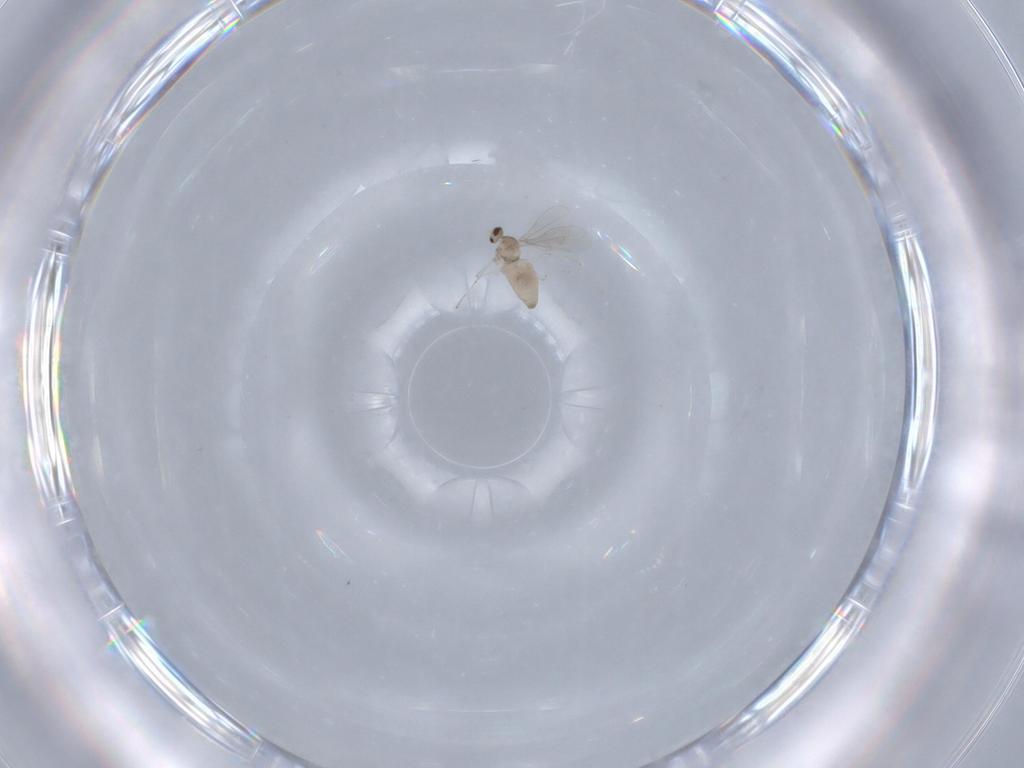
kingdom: Animalia
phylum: Arthropoda
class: Insecta
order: Diptera
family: Cecidomyiidae
